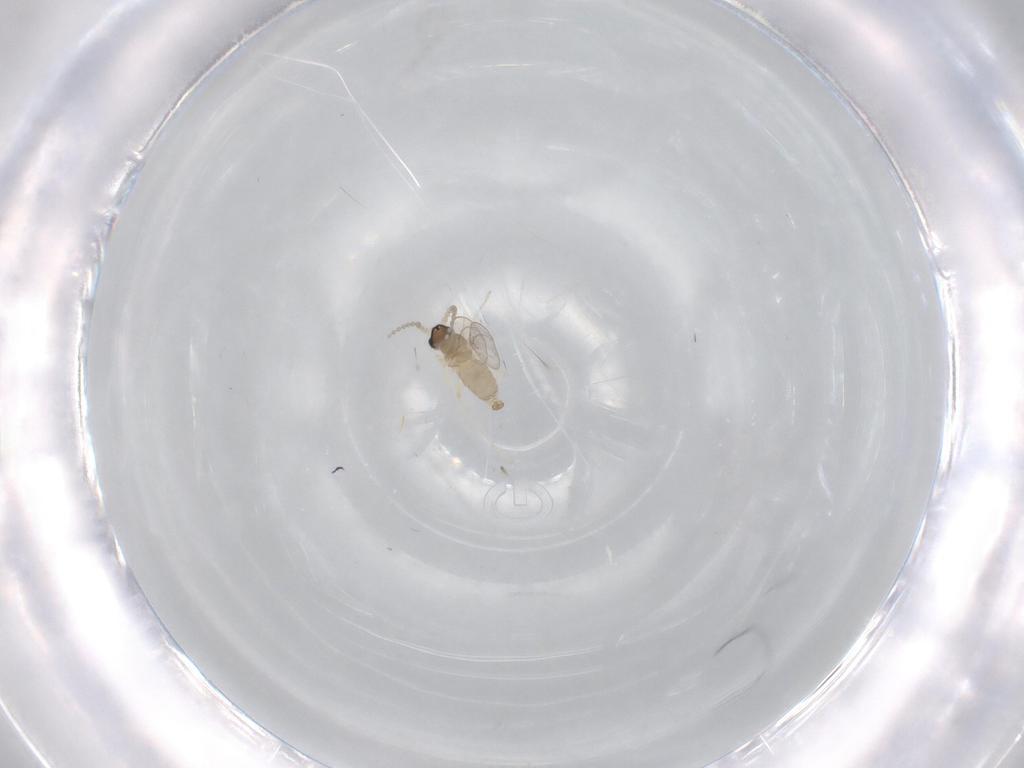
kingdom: Animalia
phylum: Arthropoda
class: Insecta
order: Diptera
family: Cecidomyiidae
